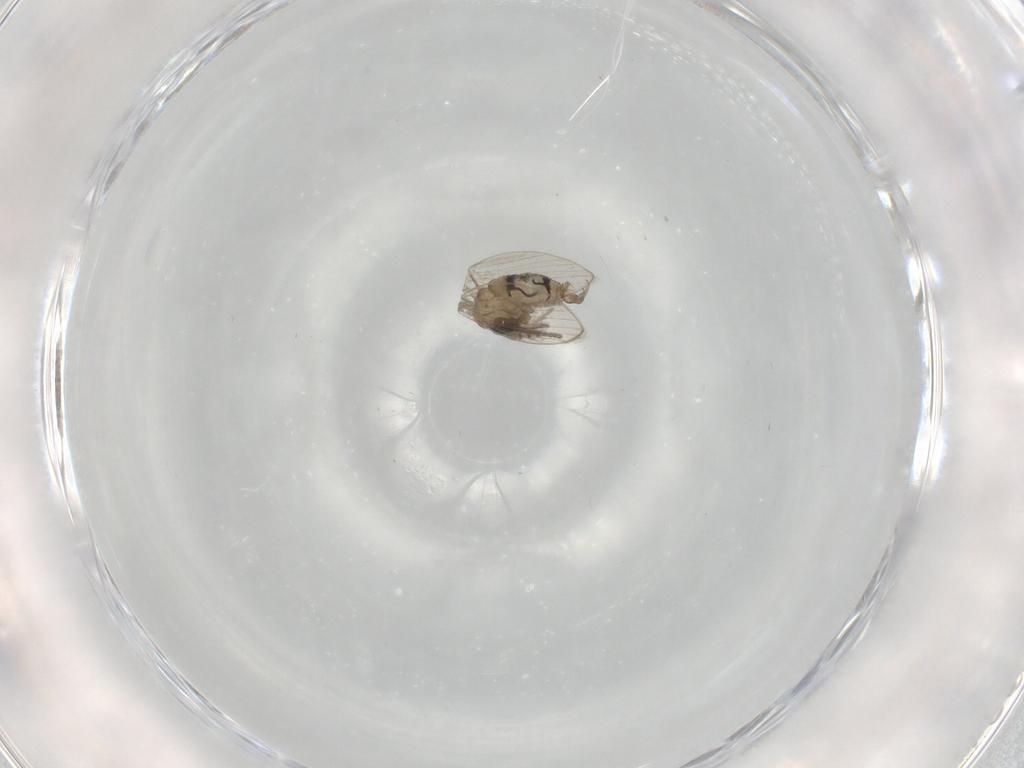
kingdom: Animalia
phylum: Arthropoda
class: Insecta
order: Diptera
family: Psychodidae
